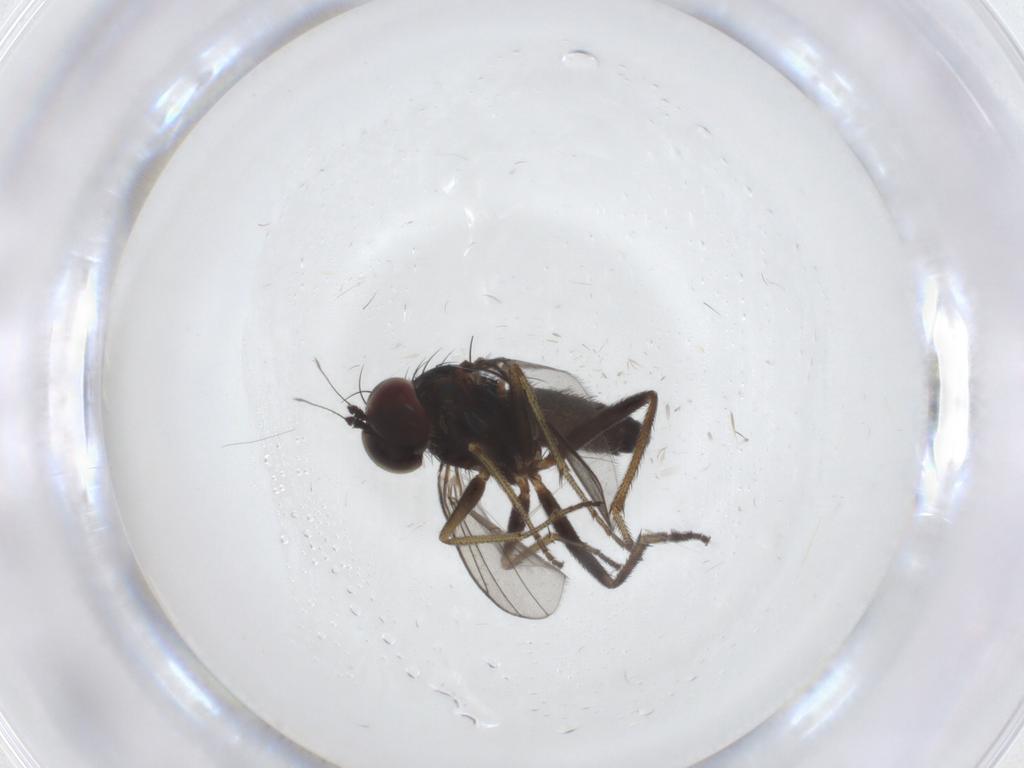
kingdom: Animalia
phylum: Arthropoda
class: Insecta
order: Diptera
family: Dolichopodidae
